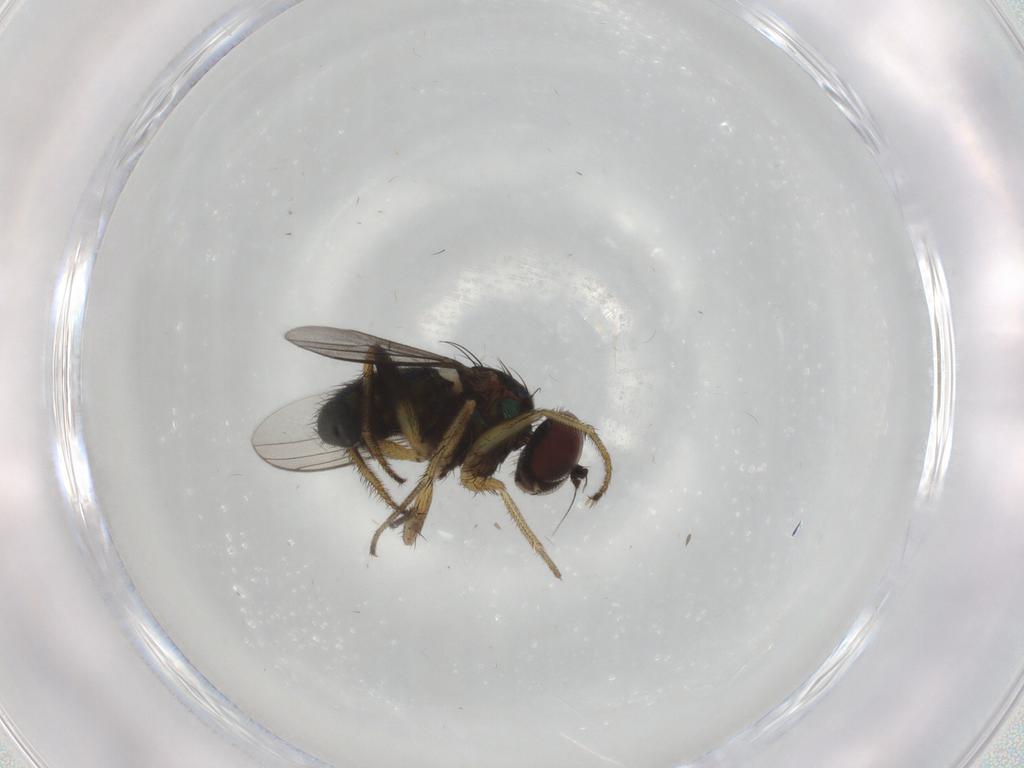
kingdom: Animalia
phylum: Arthropoda
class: Insecta
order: Diptera
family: Dolichopodidae
